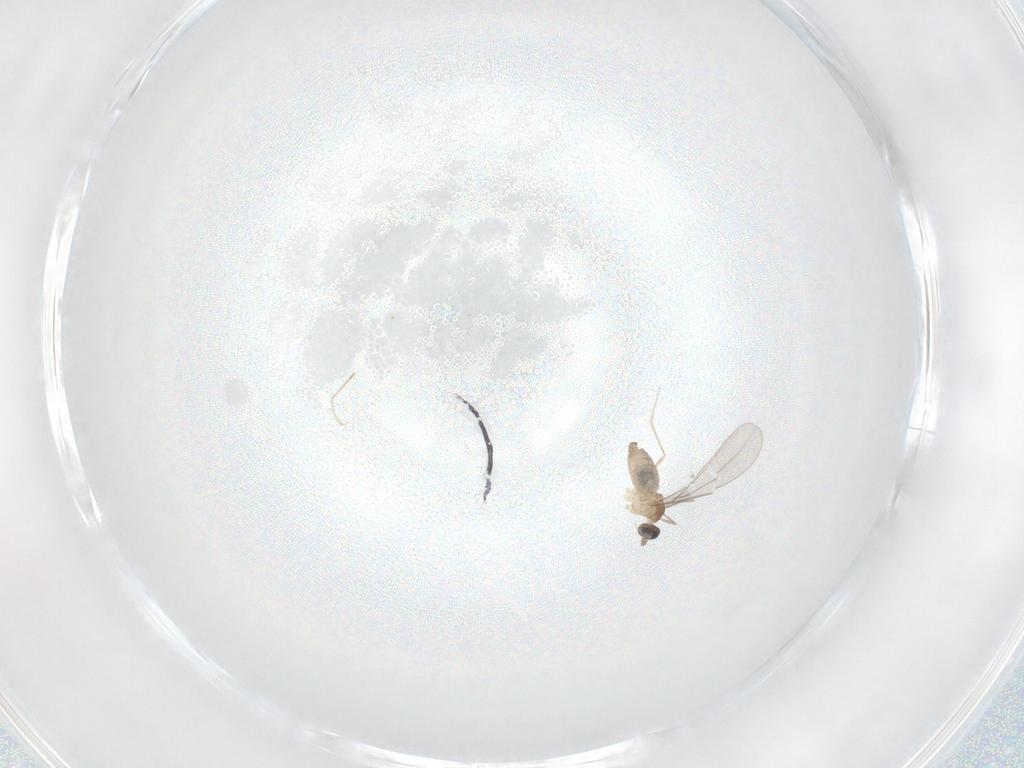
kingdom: Animalia
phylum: Arthropoda
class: Insecta
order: Diptera
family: Cecidomyiidae
